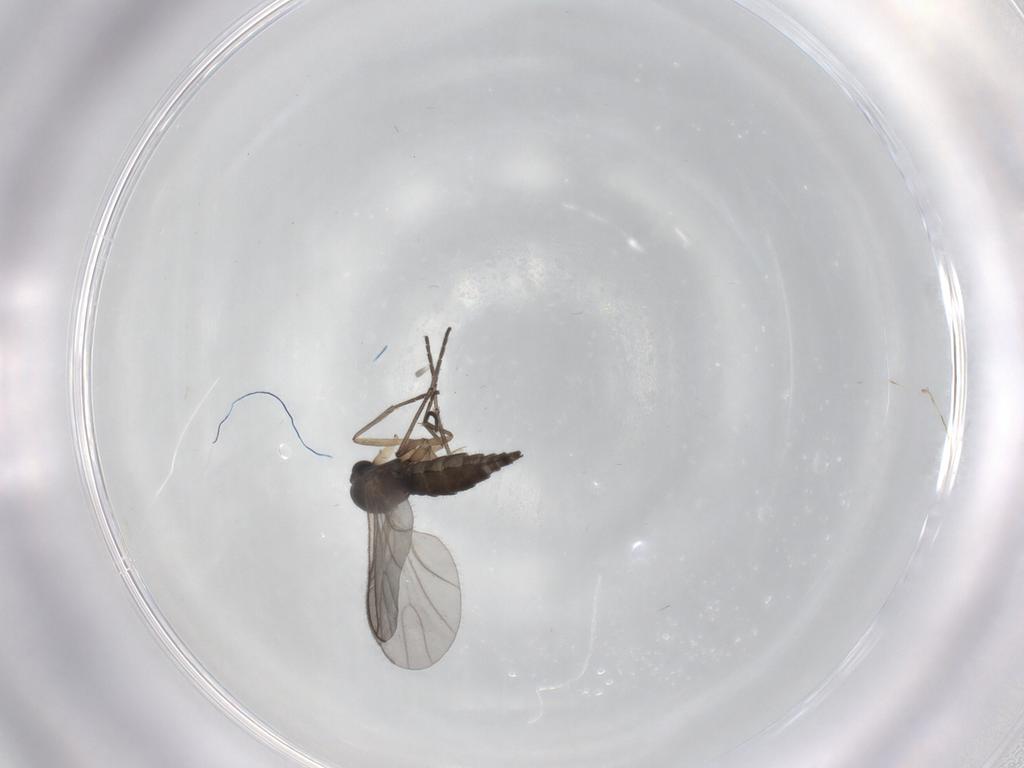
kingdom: Animalia
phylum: Arthropoda
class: Insecta
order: Diptera
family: Sciaridae
